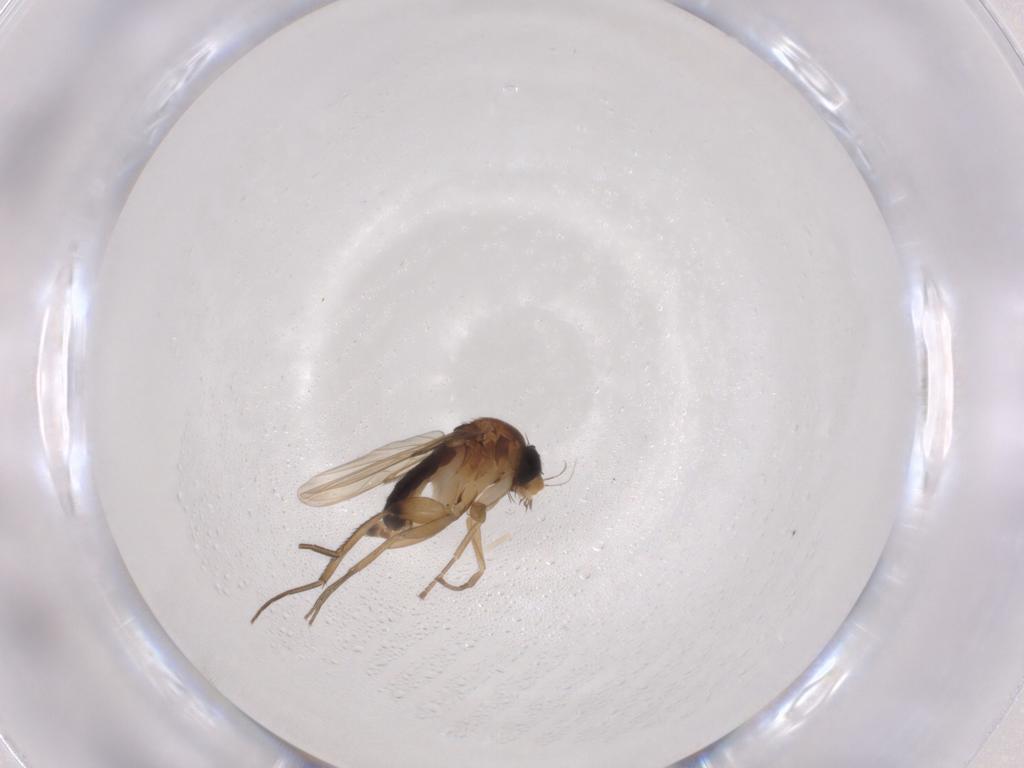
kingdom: Animalia
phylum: Arthropoda
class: Insecta
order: Diptera
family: Phoridae
